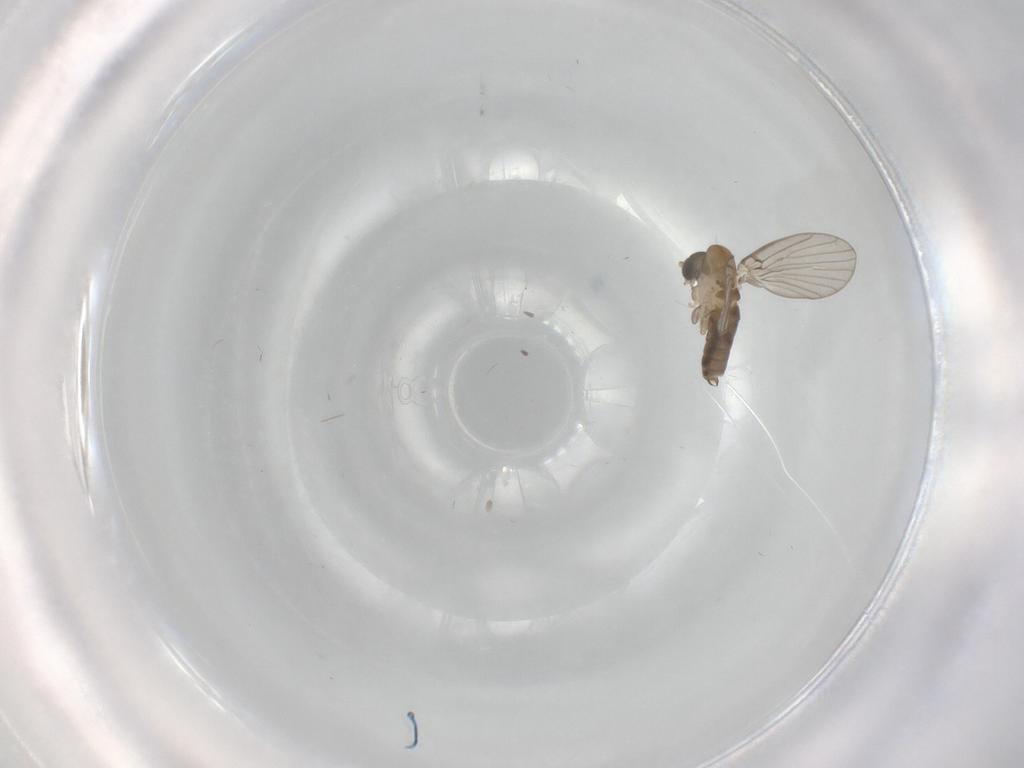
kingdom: Animalia
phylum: Arthropoda
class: Insecta
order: Diptera
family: Psychodidae
